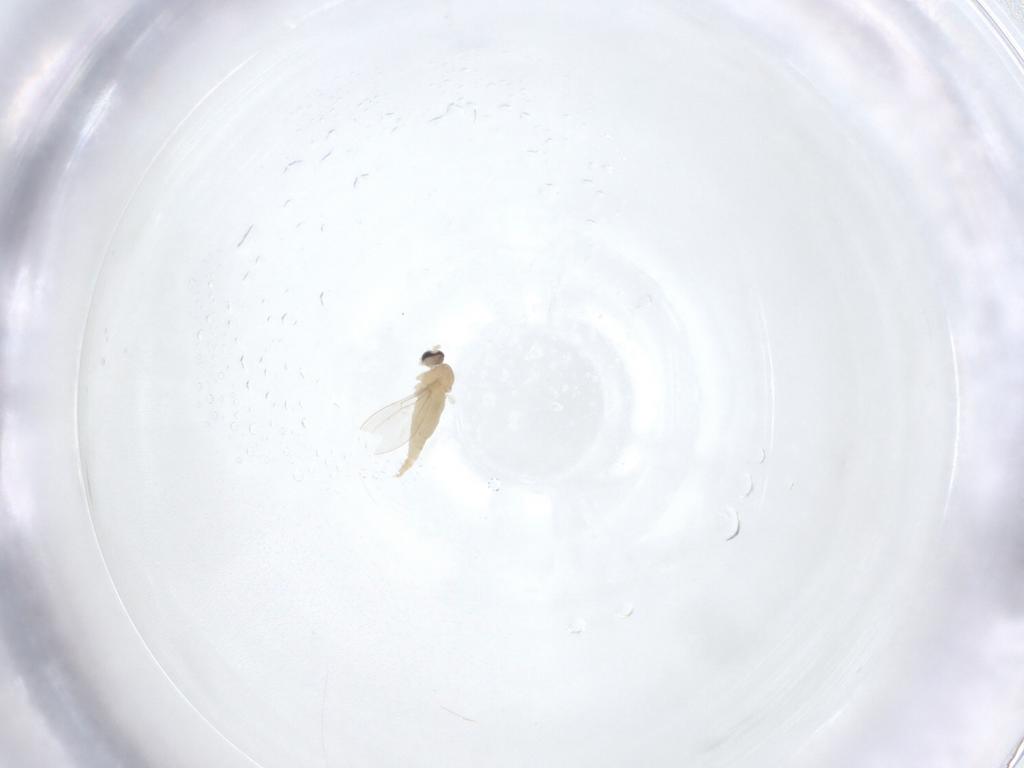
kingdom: Animalia
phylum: Arthropoda
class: Insecta
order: Diptera
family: Cecidomyiidae
